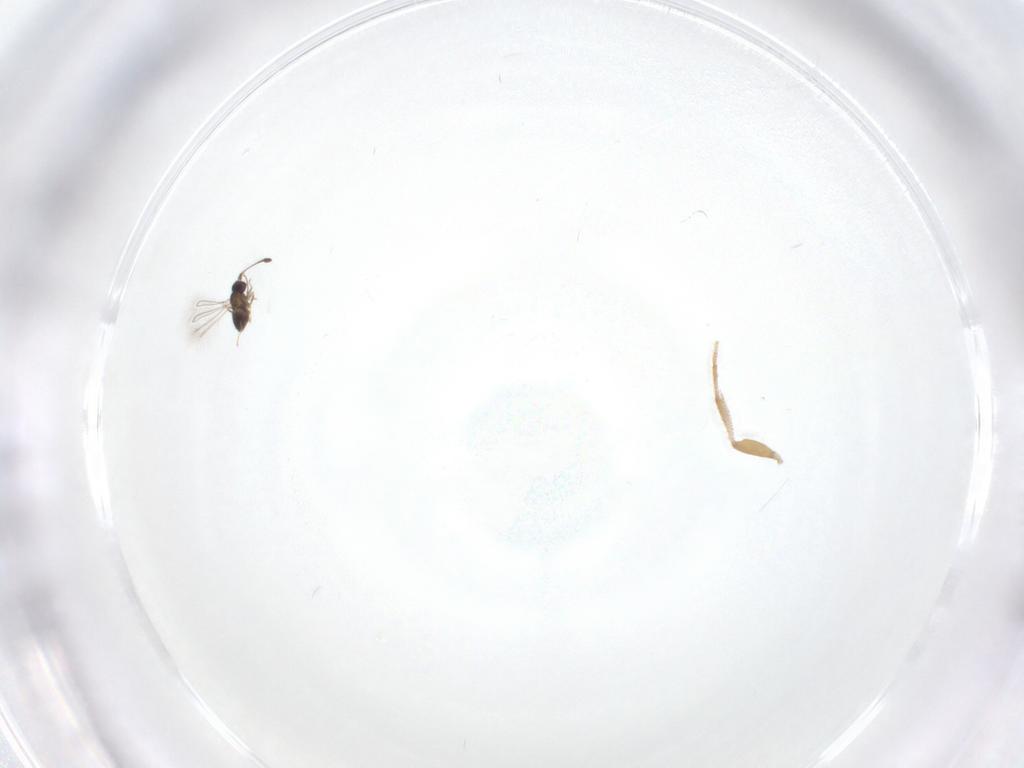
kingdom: Animalia
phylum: Arthropoda
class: Insecta
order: Hymenoptera
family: Mymaridae
